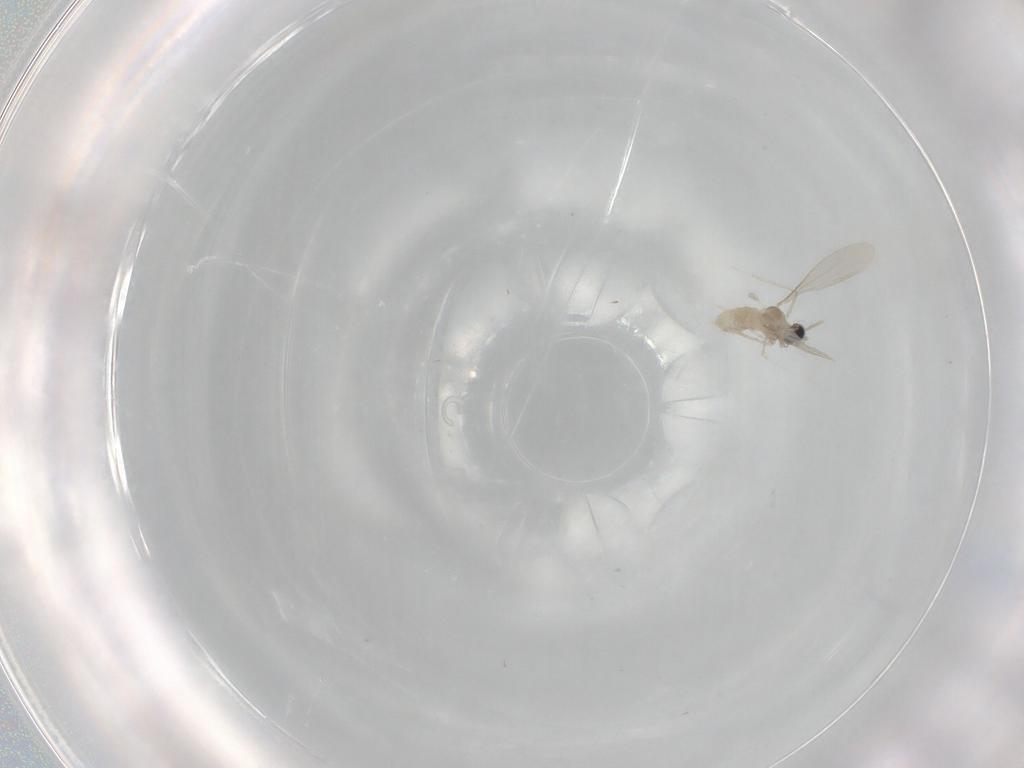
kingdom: Animalia
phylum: Arthropoda
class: Insecta
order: Diptera
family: Cecidomyiidae
